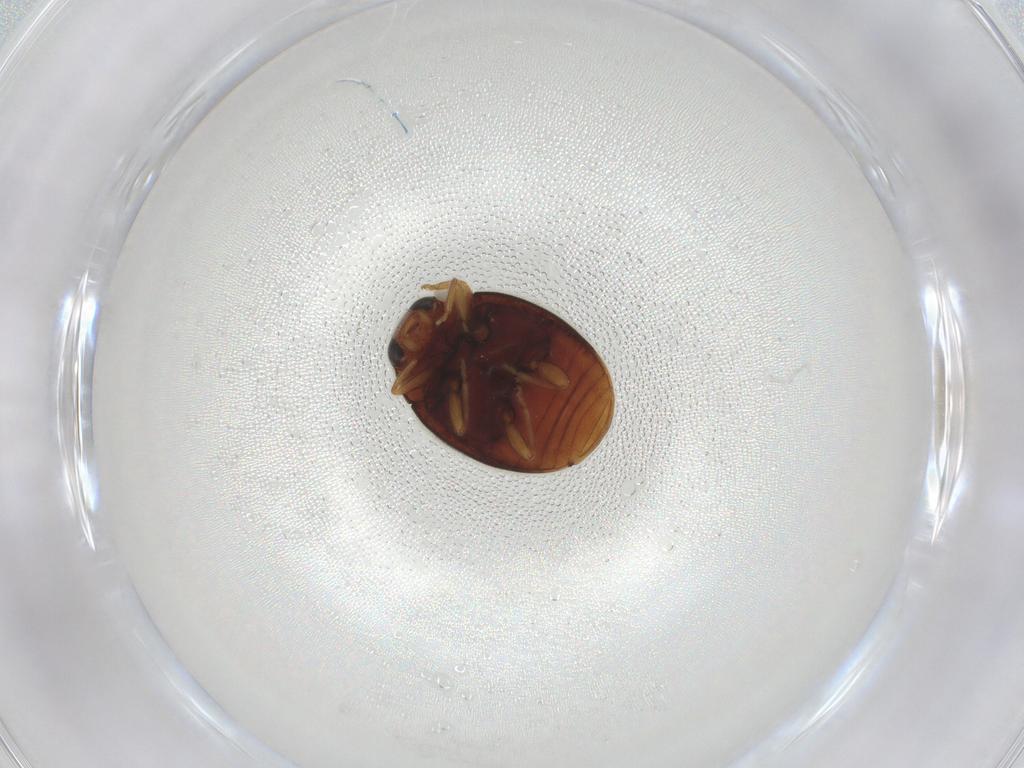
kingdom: Animalia
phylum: Arthropoda
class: Insecta
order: Coleoptera
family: Coccinellidae
